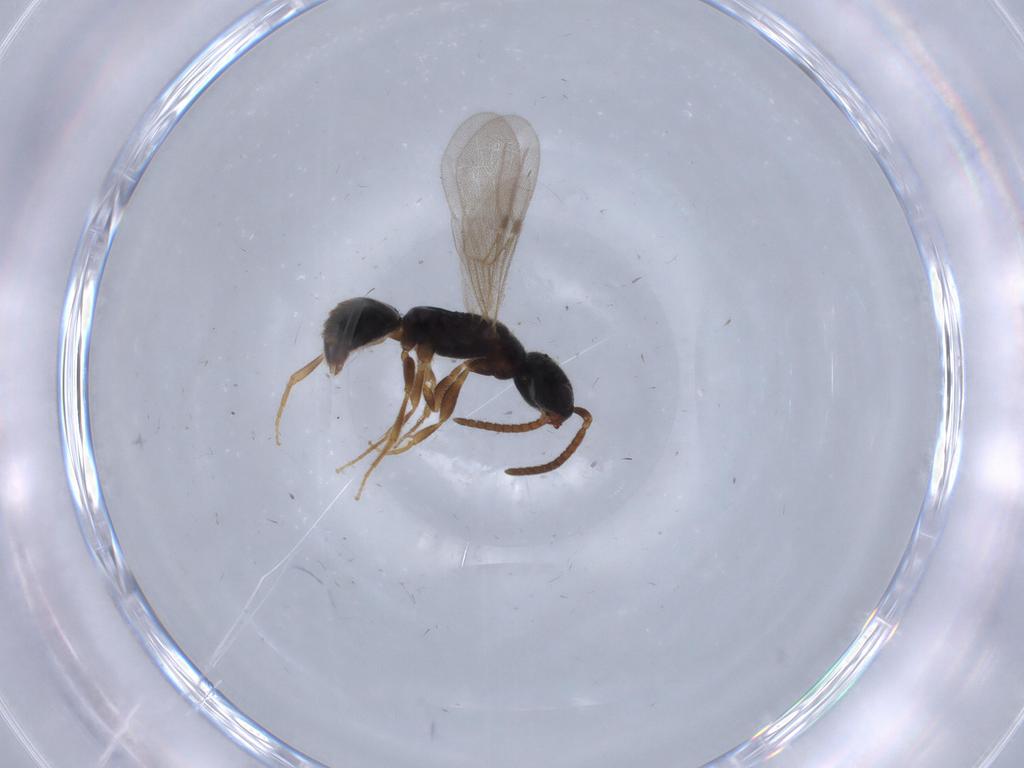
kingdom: Animalia
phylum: Arthropoda
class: Insecta
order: Hymenoptera
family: Bethylidae
